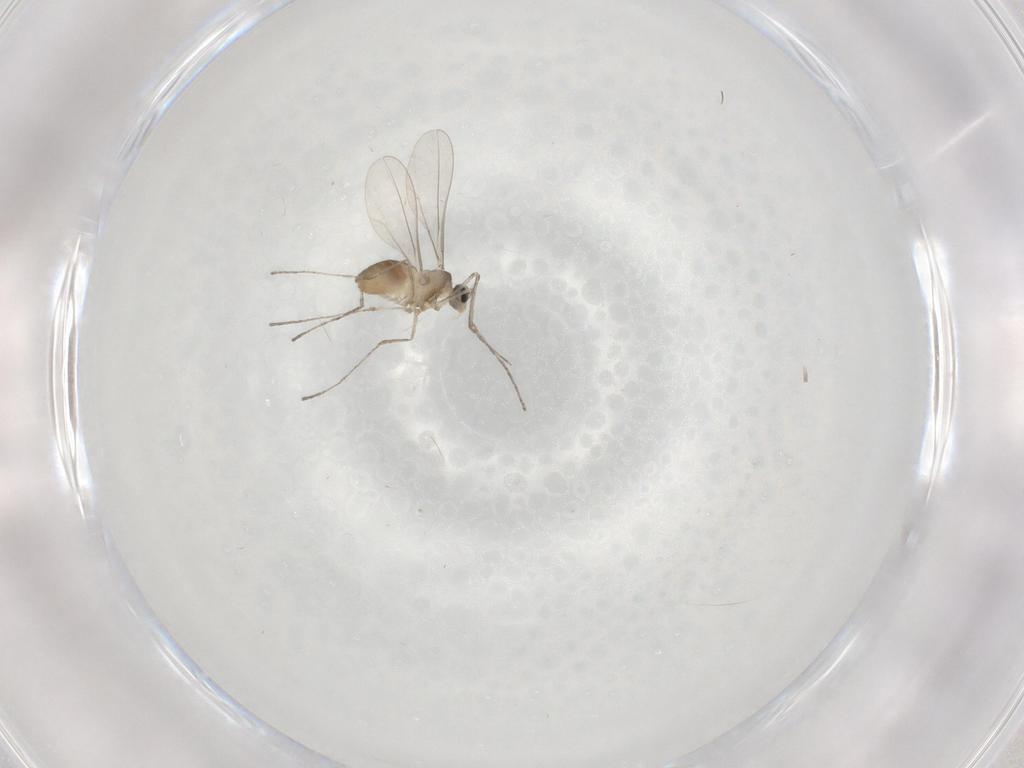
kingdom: Animalia
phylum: Arthropoda
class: Insecta
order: Diptera
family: Cecidomyiidae
